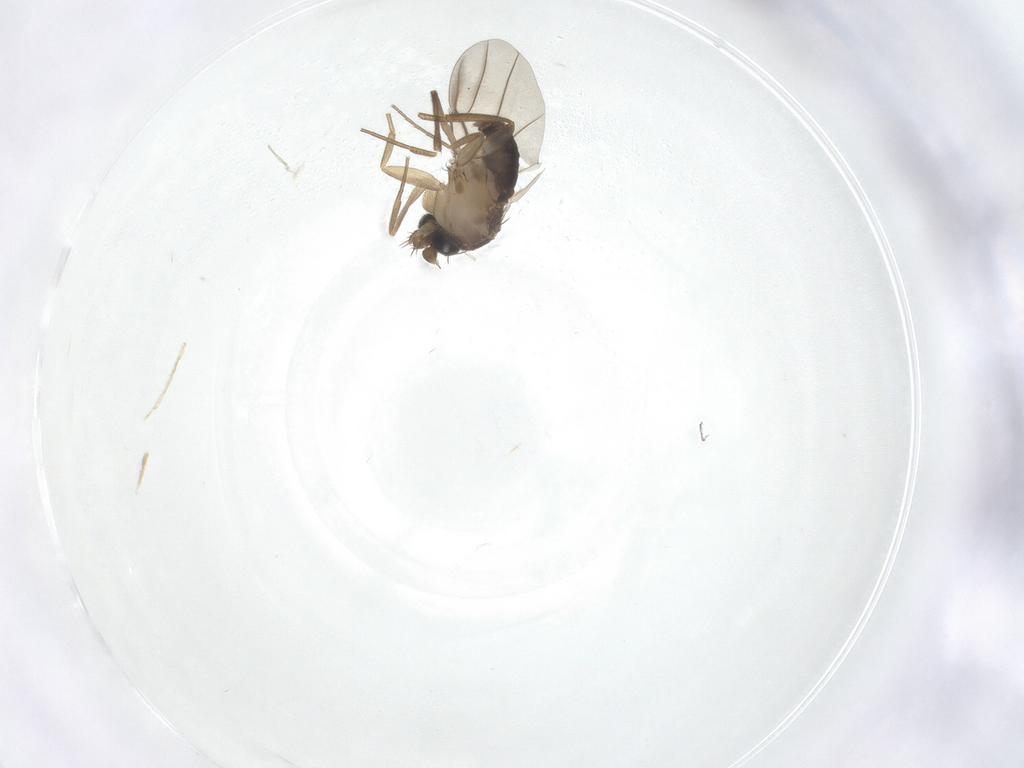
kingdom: Animalia
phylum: Arthropoda
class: Insecta
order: Diptera
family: Phoridae
